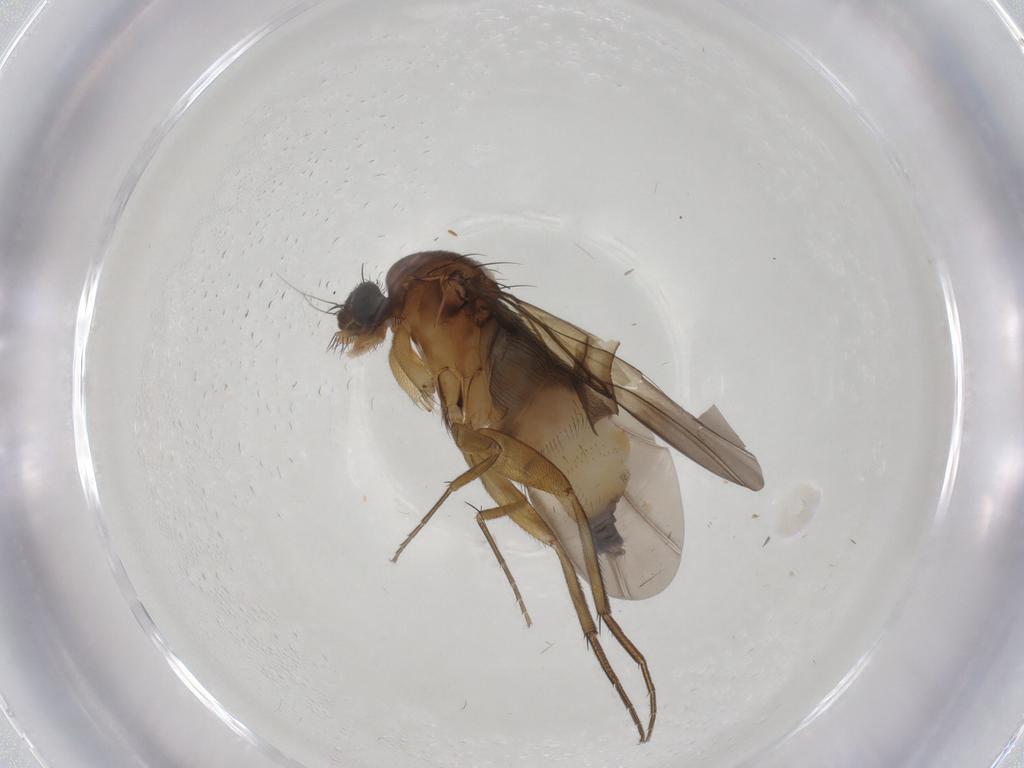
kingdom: Animalia
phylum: Arthropoda
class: Insecta
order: Diptera
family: Phoridae
